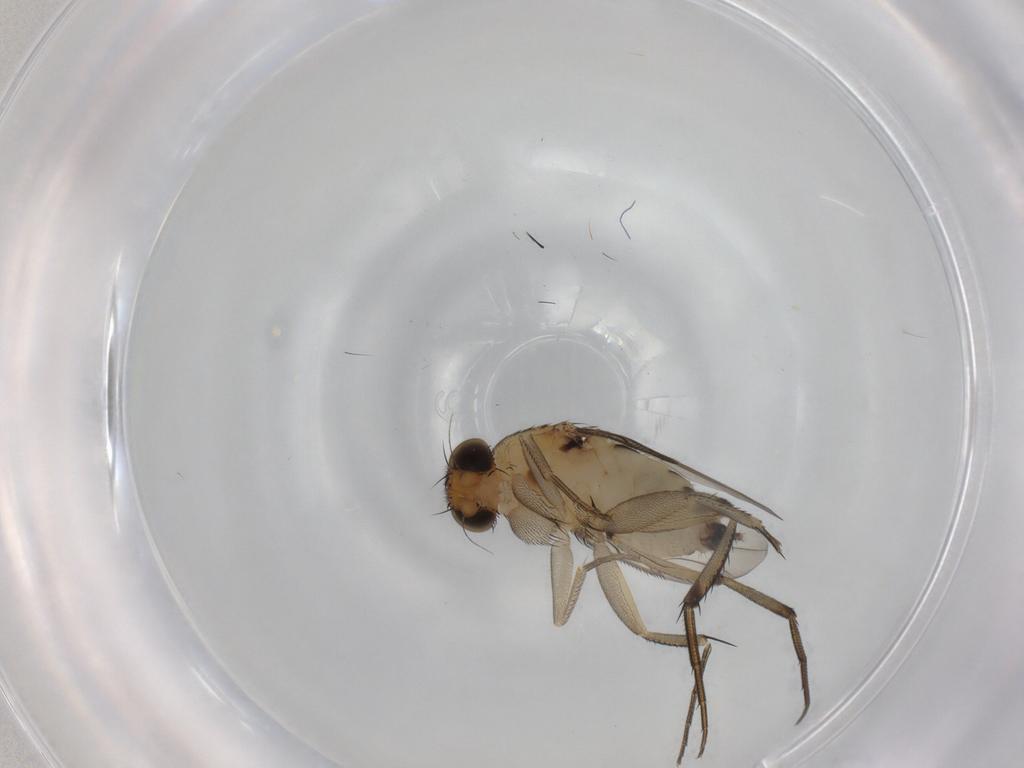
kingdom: Animalia
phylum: Arthropoda
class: Insecta
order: Diptera
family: Phoridae
